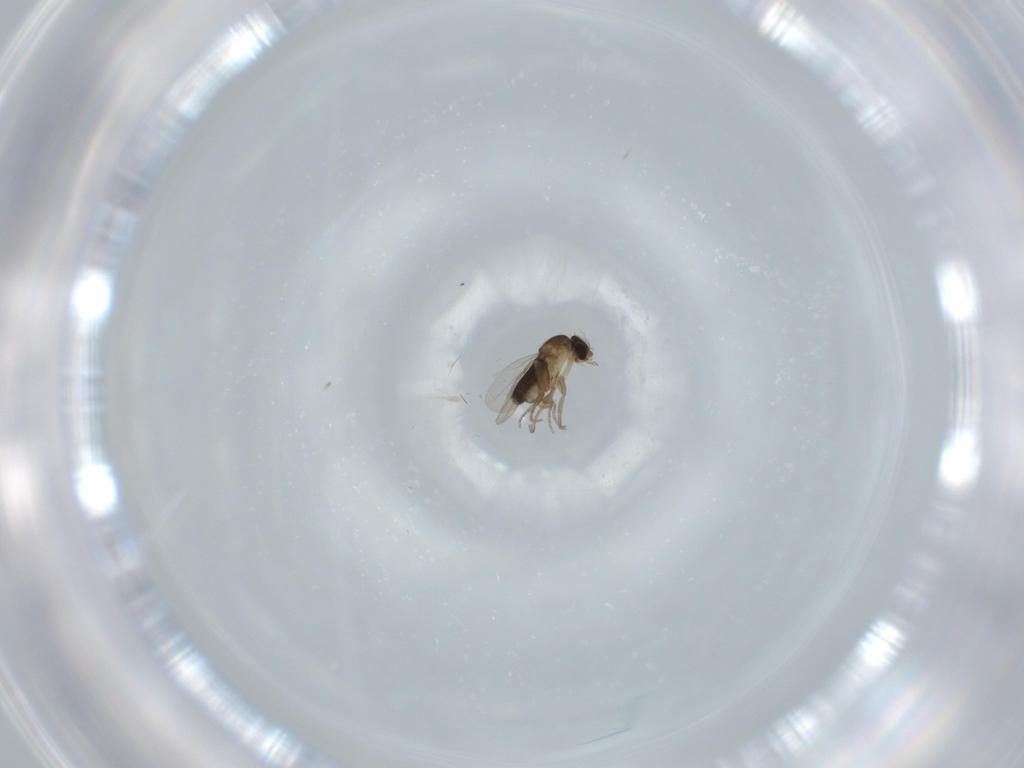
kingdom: Animalia
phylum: Arthropoda
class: Insecta
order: Diptera
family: Phoridae
